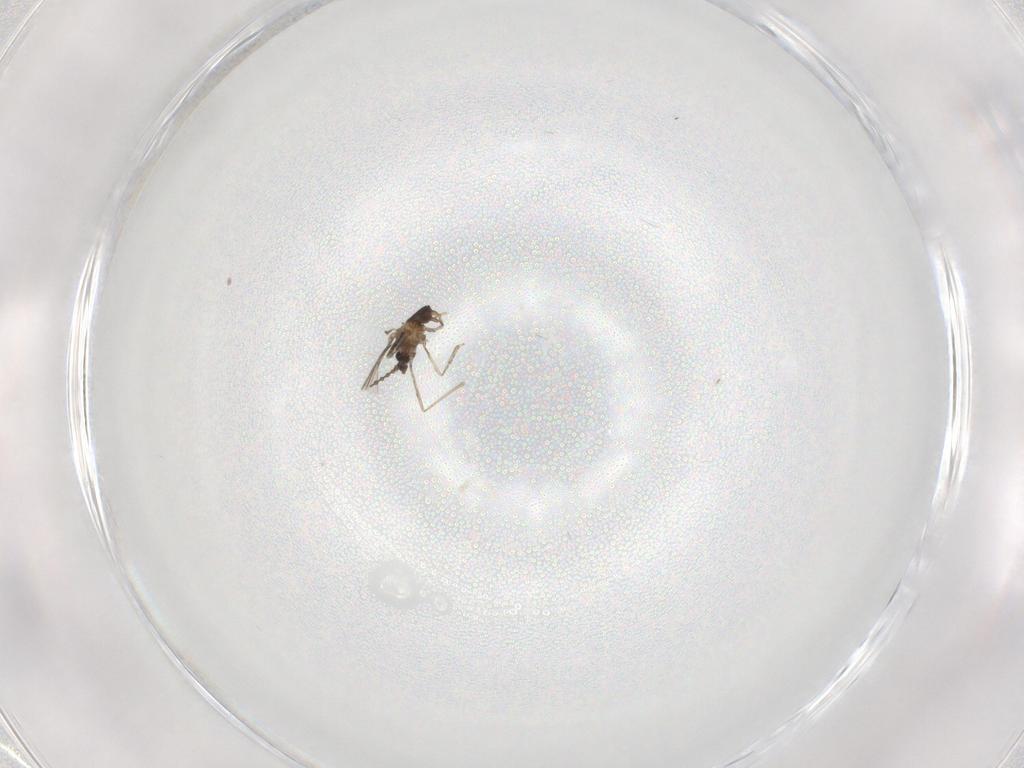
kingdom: Animalia
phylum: Arthropoda
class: Insecta
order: Diptera
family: Cecidomyiidae
